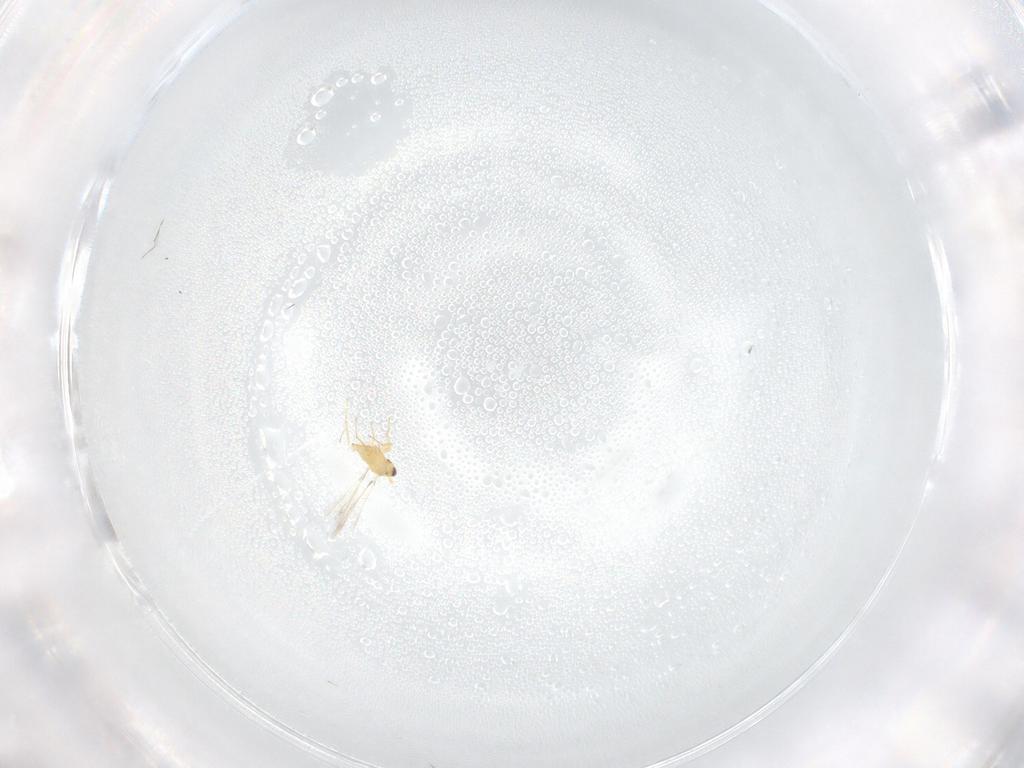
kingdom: Animalia
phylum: Arthropoda
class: Insecta
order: Hymenoptera
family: Mymaridae
